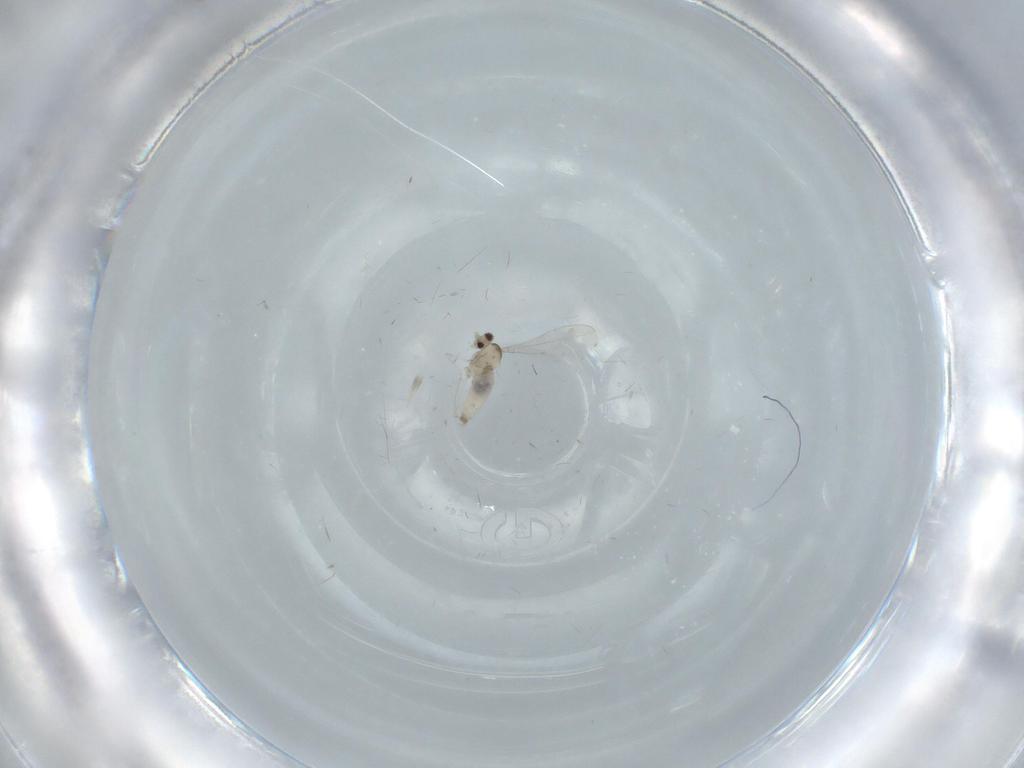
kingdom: Animalia
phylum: Arthropoda
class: Insecta
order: Diptera
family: Cecidomyiidae
